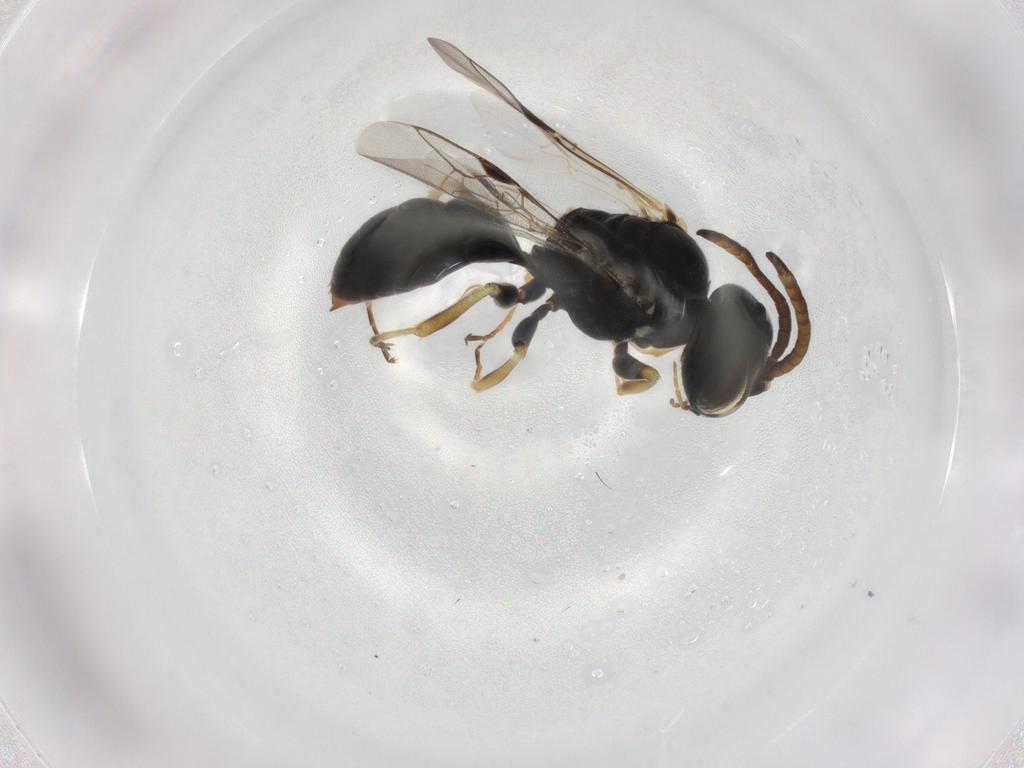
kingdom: Animalia
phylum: Arthropoda
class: Insecta
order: Hymenoptera
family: Crabronidae
